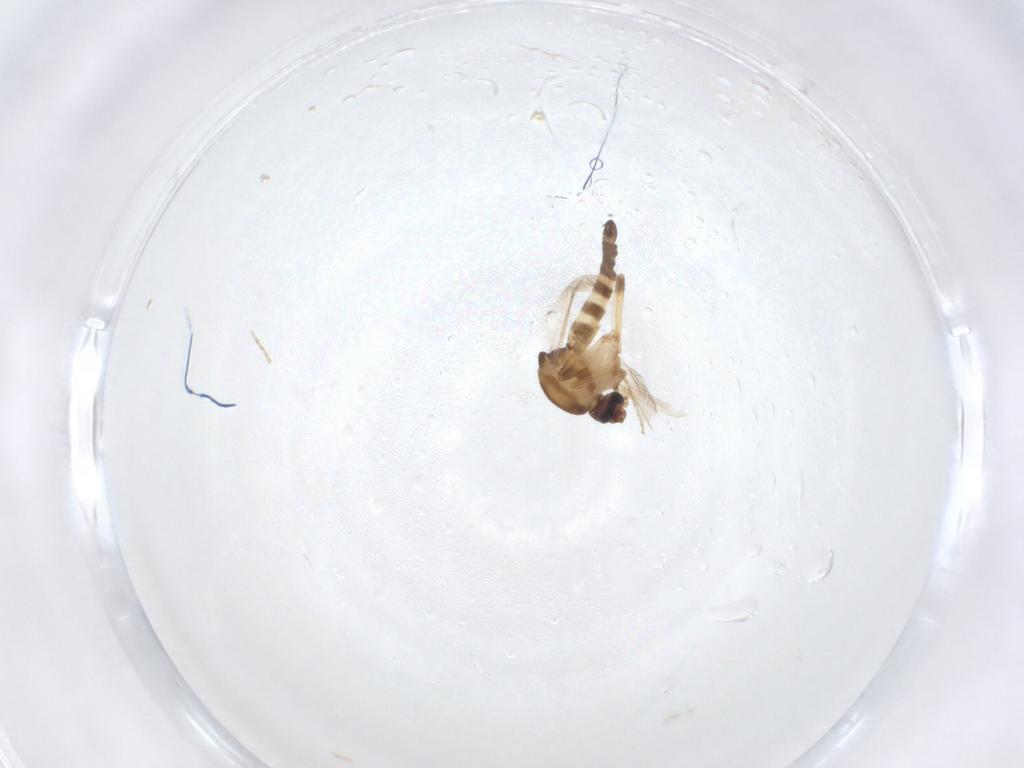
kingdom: Animalia
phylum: Arthropoda
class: Insecta
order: Diptera
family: Ceratopogonidae
